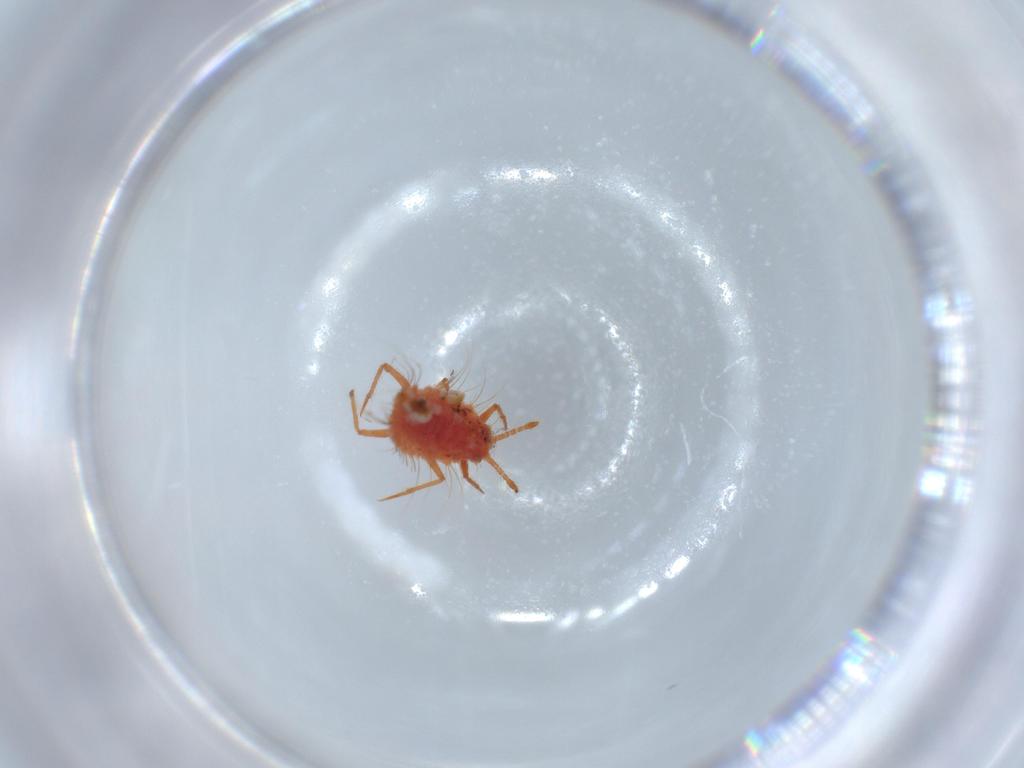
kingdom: Animalia
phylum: Arthropoda
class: Insecta
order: Hemiptera
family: Monophlebidae
